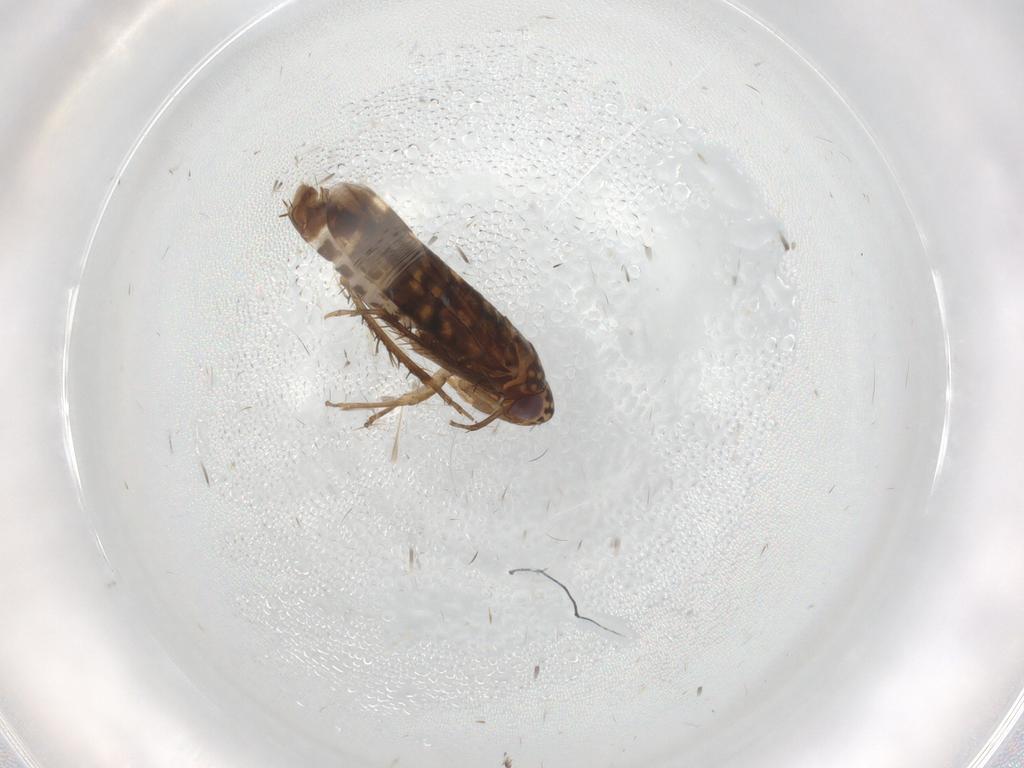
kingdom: Animalia
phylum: Arthropoda
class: Insecta
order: Hemiptera
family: Cicadellidae
